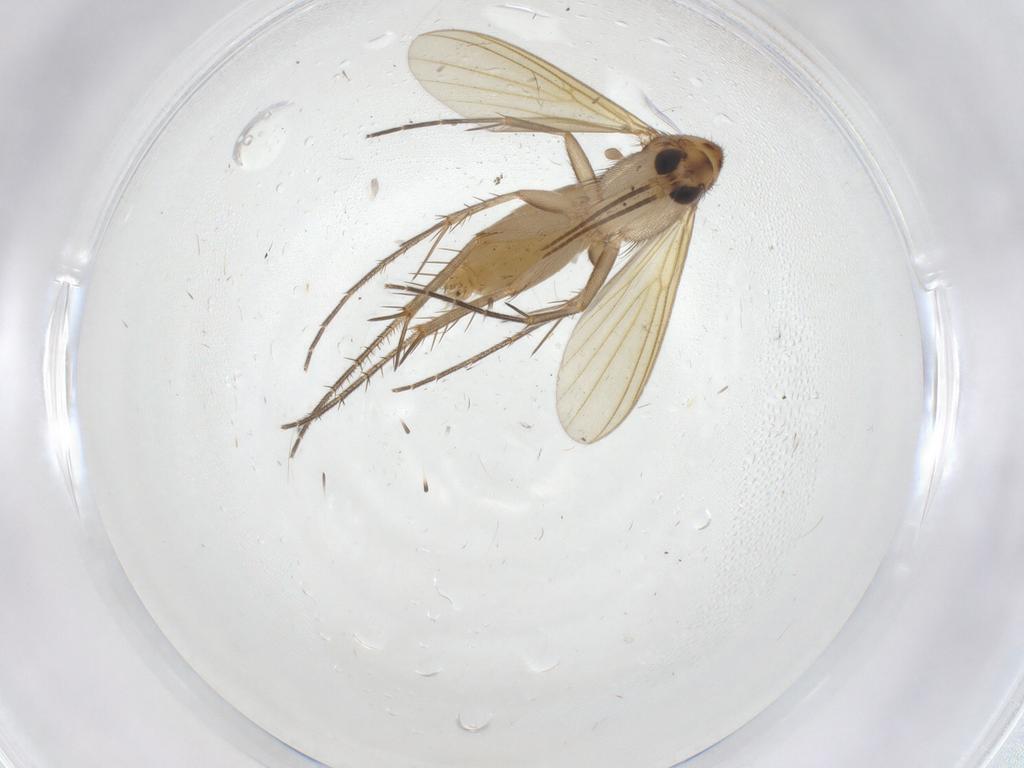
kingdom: Animalia
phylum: Arthropoda
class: Insecta
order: Diptera
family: Mycetophilidae
